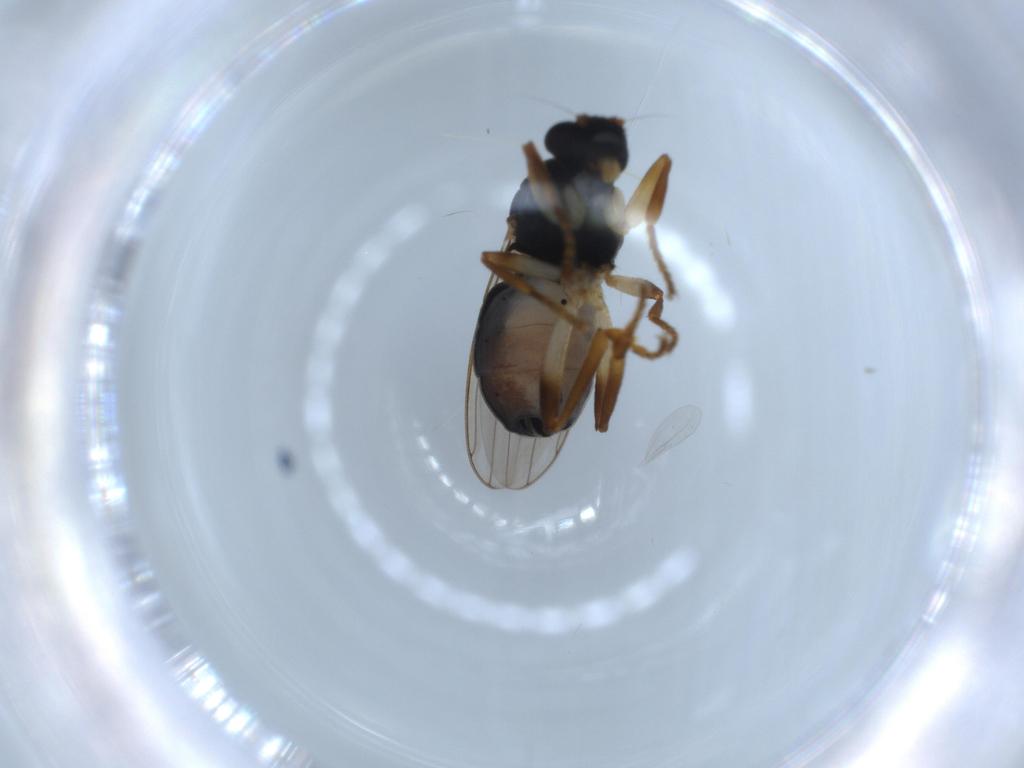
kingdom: Animalia
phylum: Arthropoda
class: Insecta
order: Diptera
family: Sphaeroceridae
